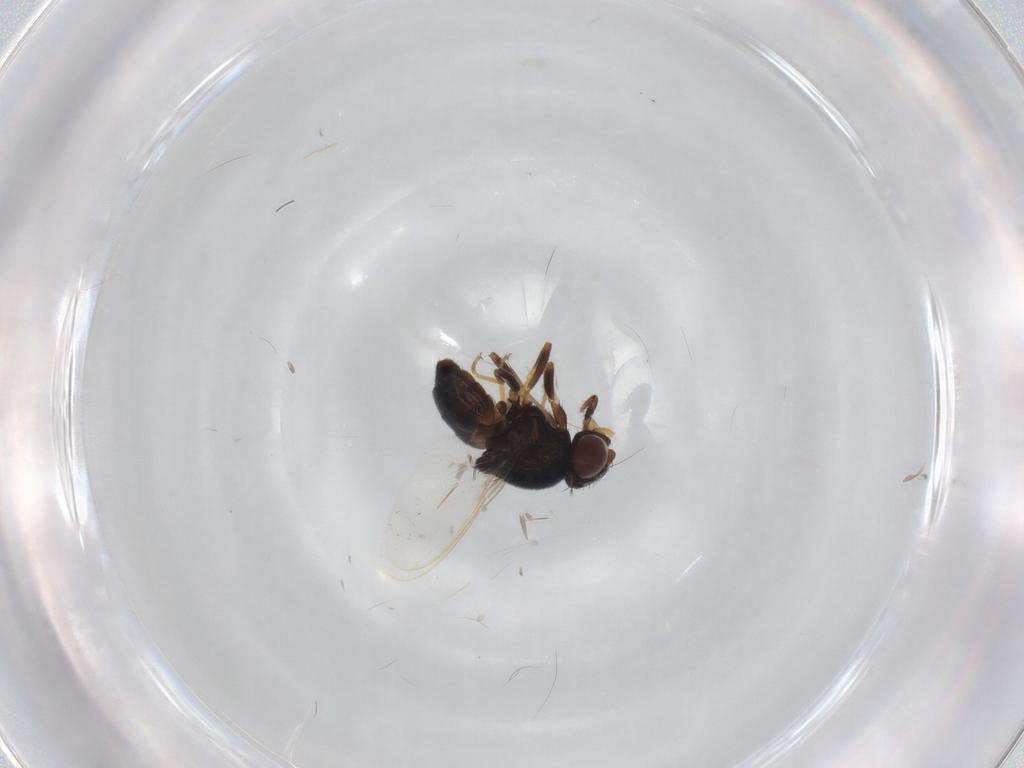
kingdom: Animalia
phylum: Arthropoda
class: Insecta
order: Diptera
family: Chloropidae
